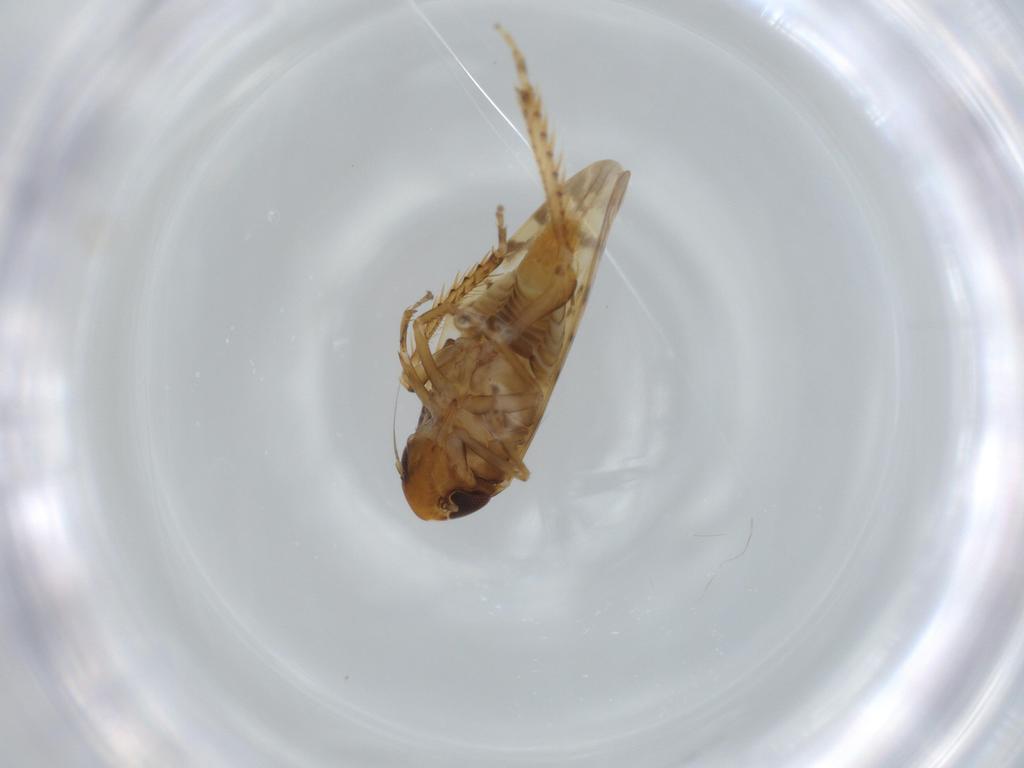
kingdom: Animalia
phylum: Arthropoda
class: Insecta
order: Hemiptera
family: Cicadellidae
